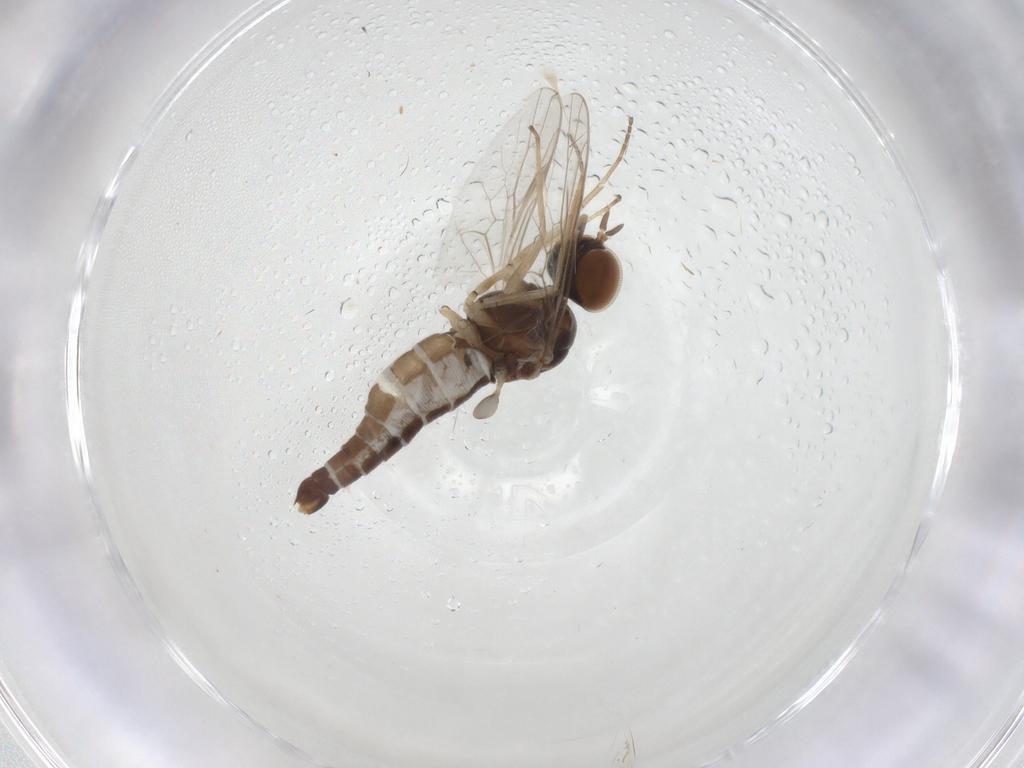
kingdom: Animalia
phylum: Arthropoda
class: Insecta
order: Diptera
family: Scenopinidae
